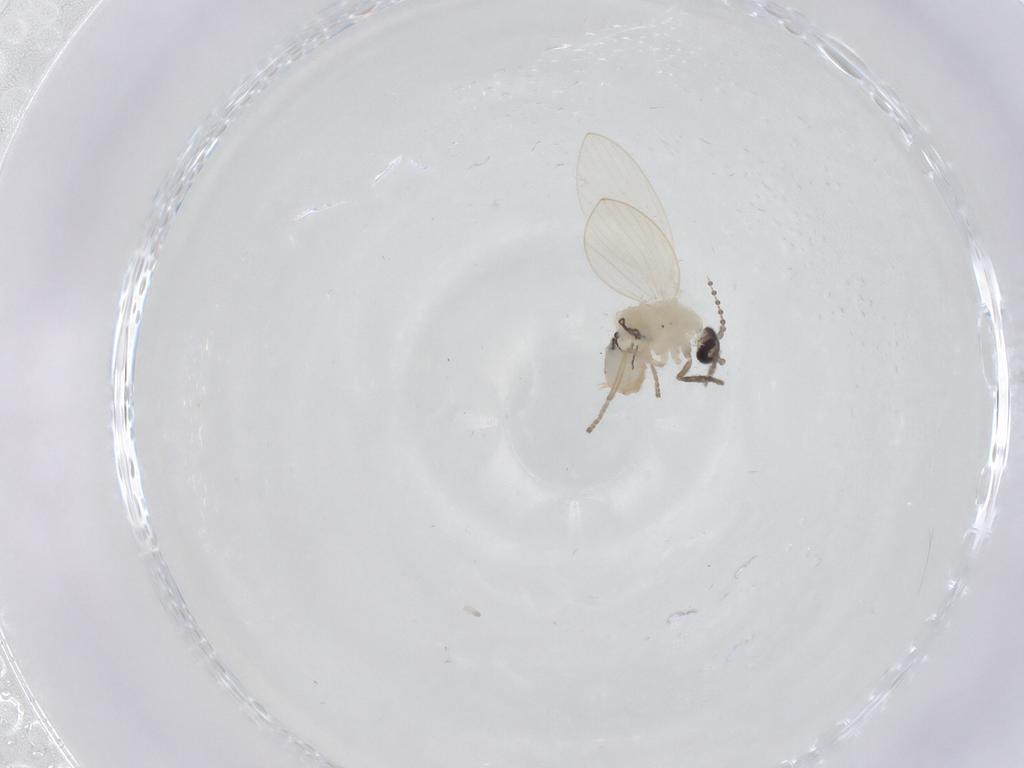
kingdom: Animalia
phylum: Arthropoda
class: Insecta
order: Diptera
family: Psychodidae
